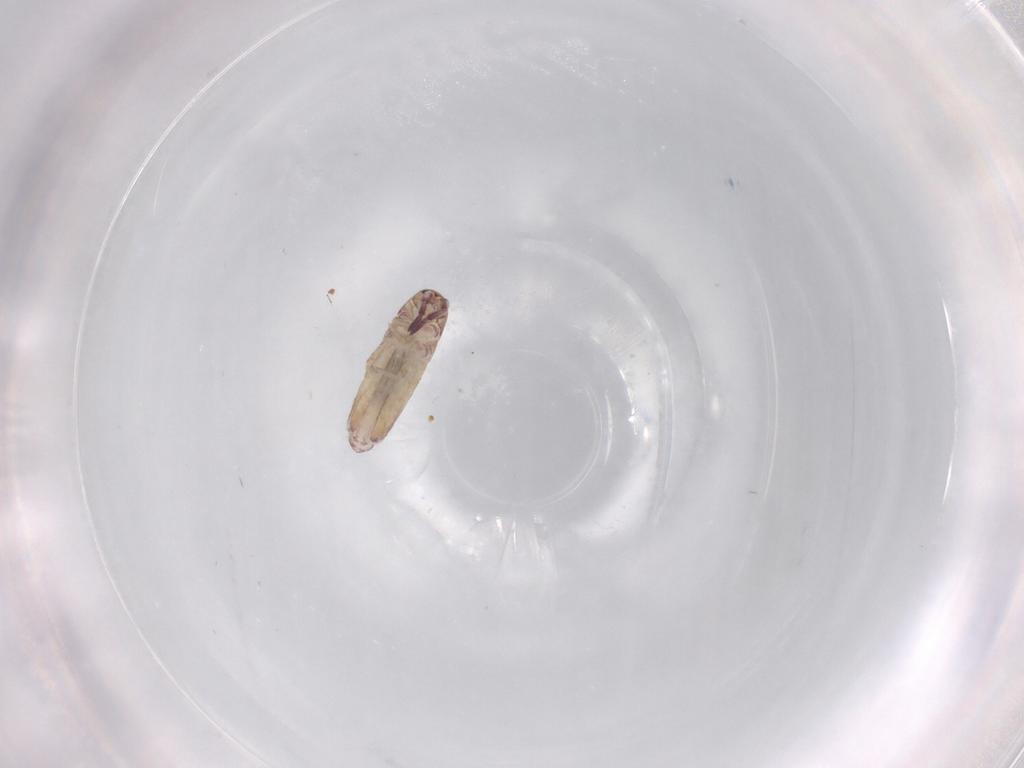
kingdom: Animalia
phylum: Arthropoda
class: Collembola
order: Entomobryomorpha
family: Entomobryidae
